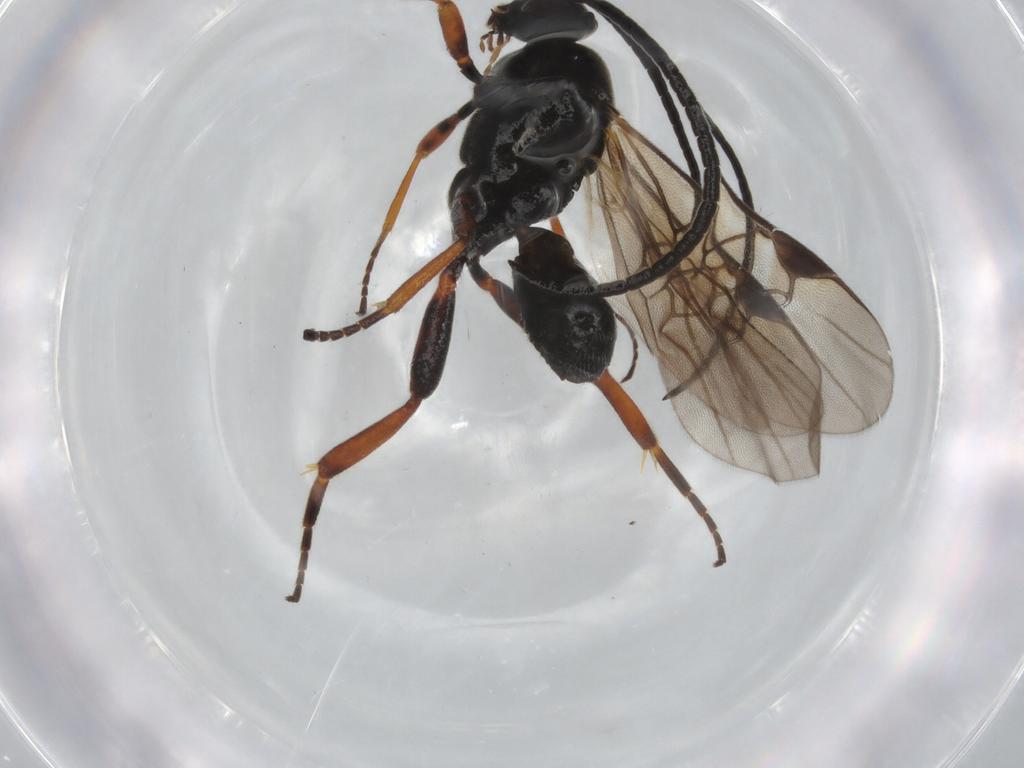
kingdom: Animalia
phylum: Arthropoda
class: Insecta
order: Hymenoptera
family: Braconidae
